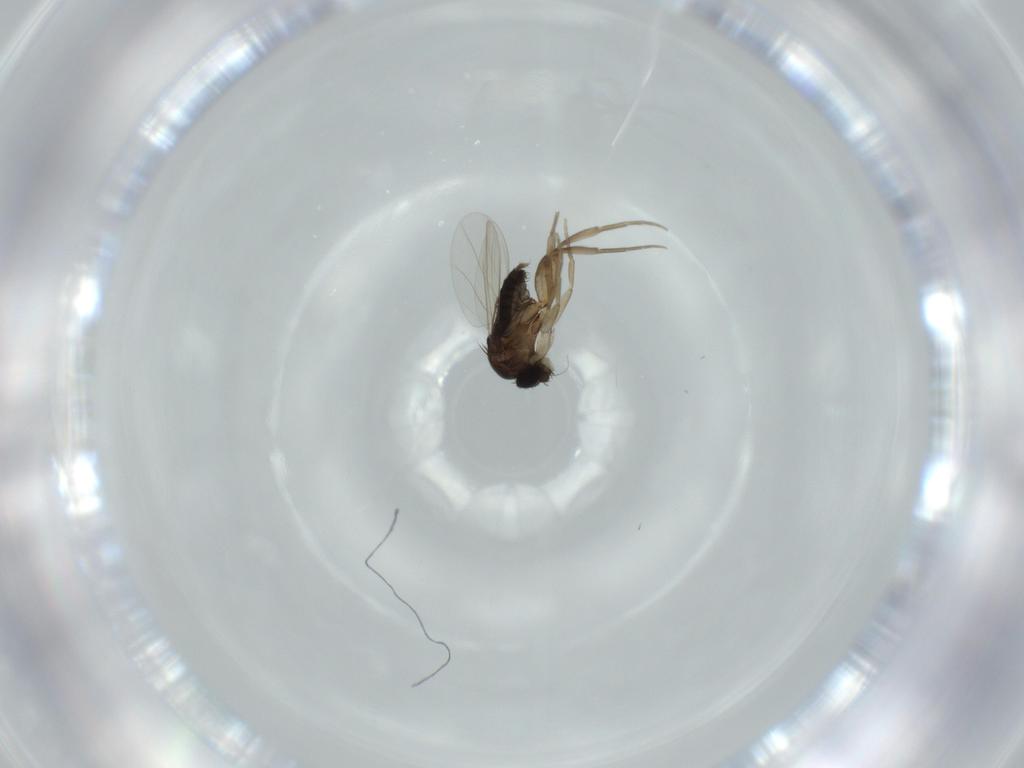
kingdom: Animalia
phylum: Arthropoda
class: Insecta
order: Diptera
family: Phoridae
